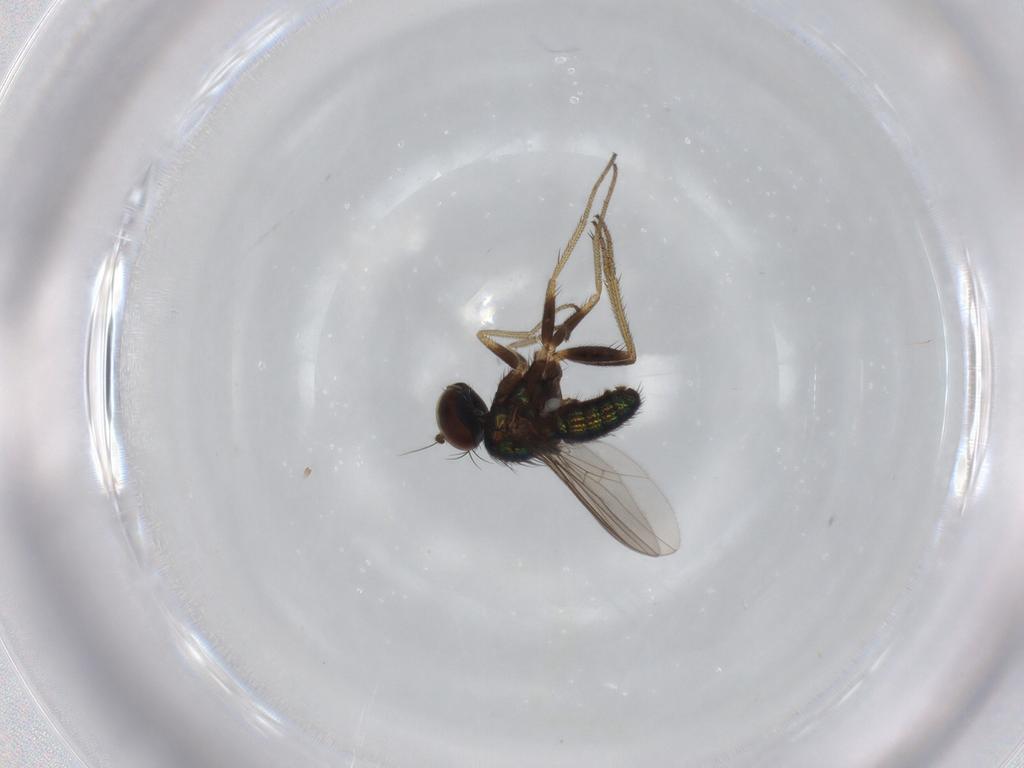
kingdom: Animalia
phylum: Arthropoda
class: Insecta
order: Diptera
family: Dolichopodidae
